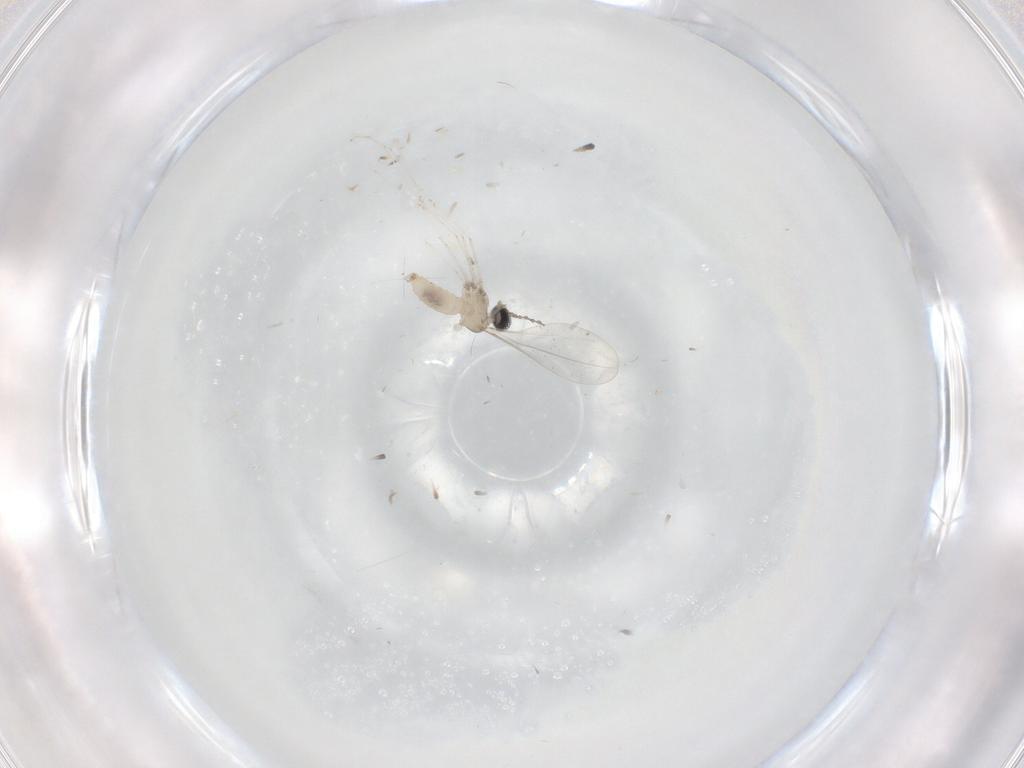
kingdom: Animalia
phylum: Arthropoda
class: Insecta
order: Diptera
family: Cecidomyiidae
